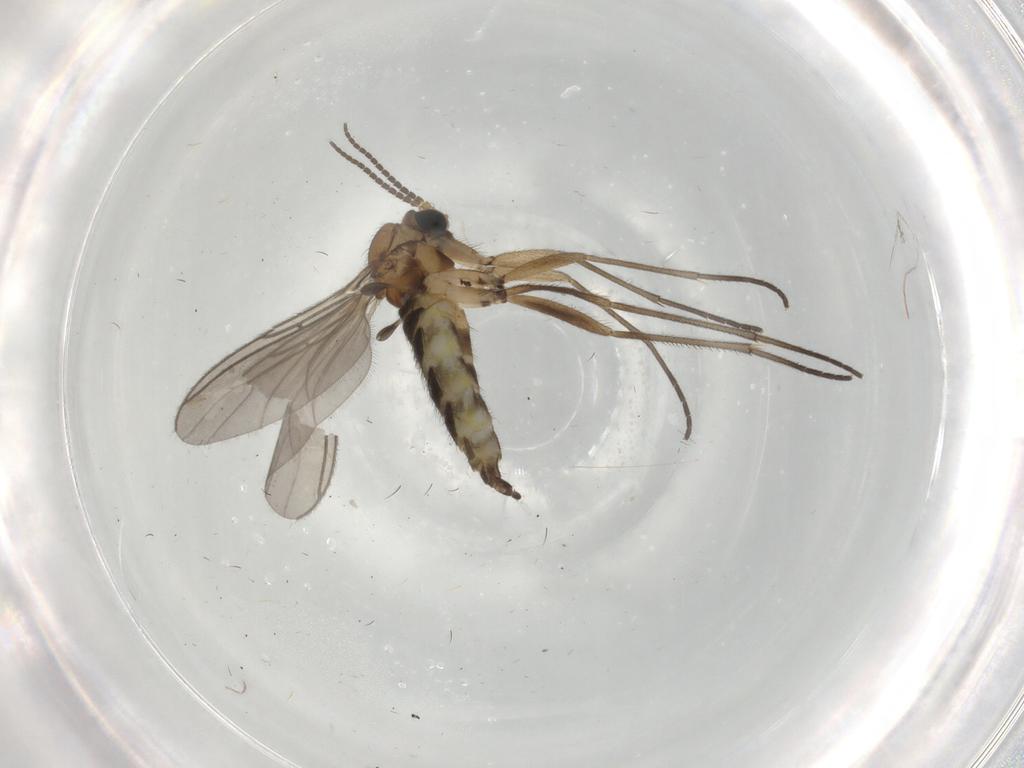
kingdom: Animalia
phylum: Arthropoda
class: Insecta
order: Diptera
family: Sciaridae
